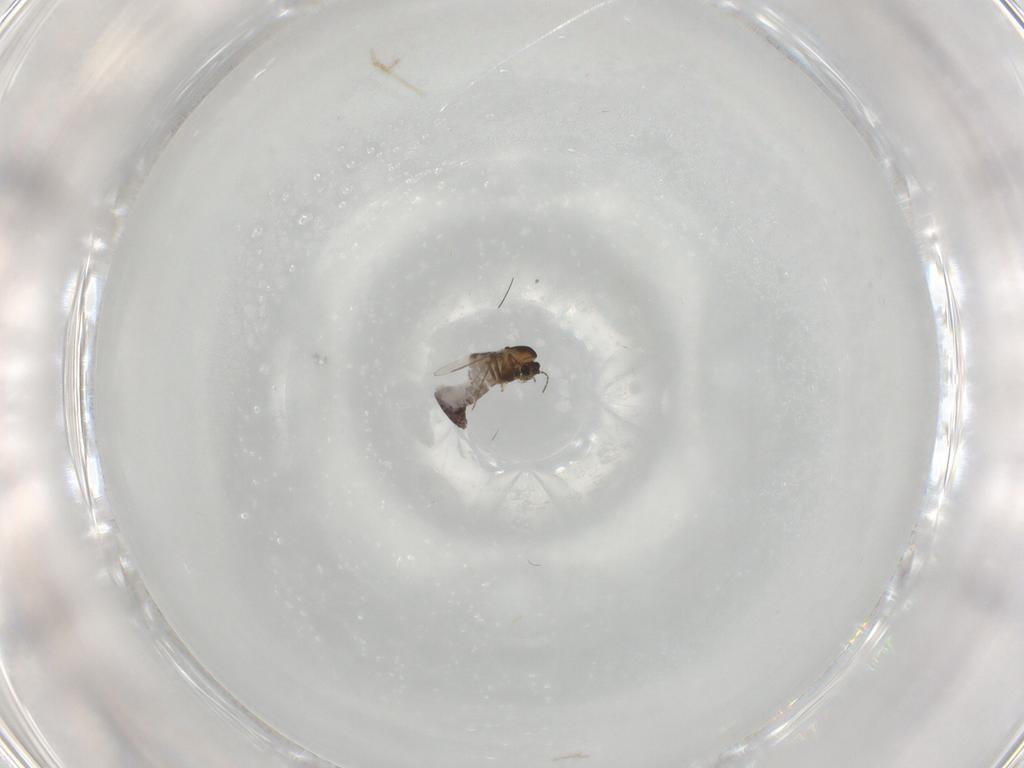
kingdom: Animalia
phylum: Arthropoda
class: Insecta
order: Diptera
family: Chironomidae
